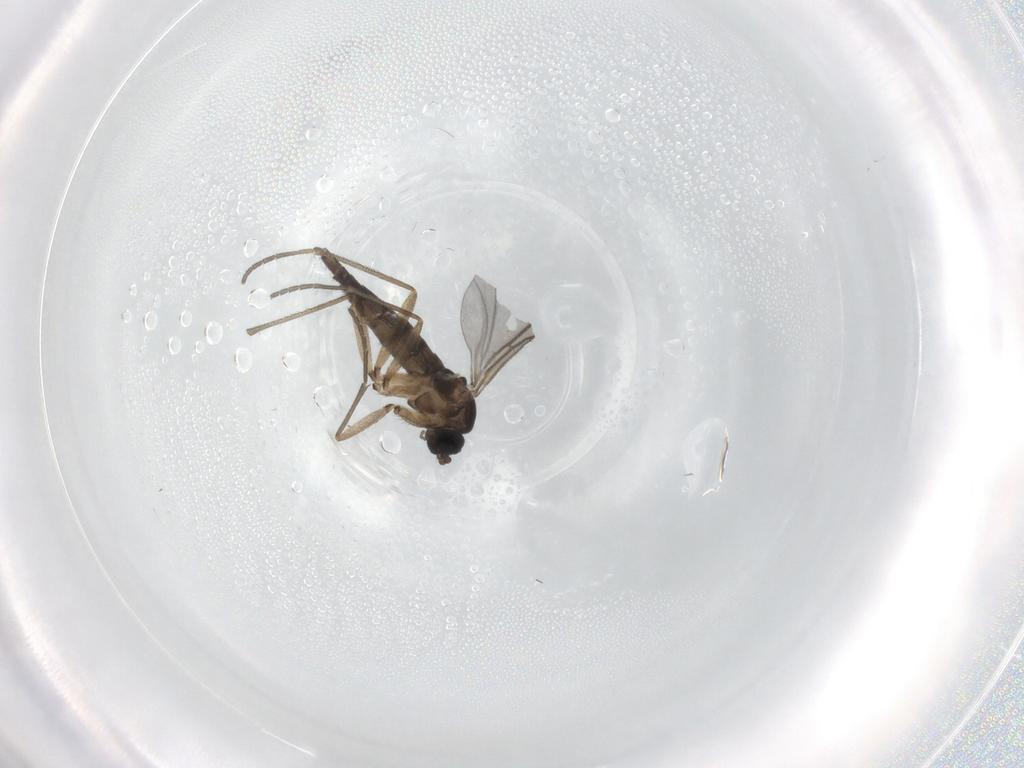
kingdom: Animalia
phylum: Arthropoda
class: Insecta
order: Diptera
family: Sciaridae
